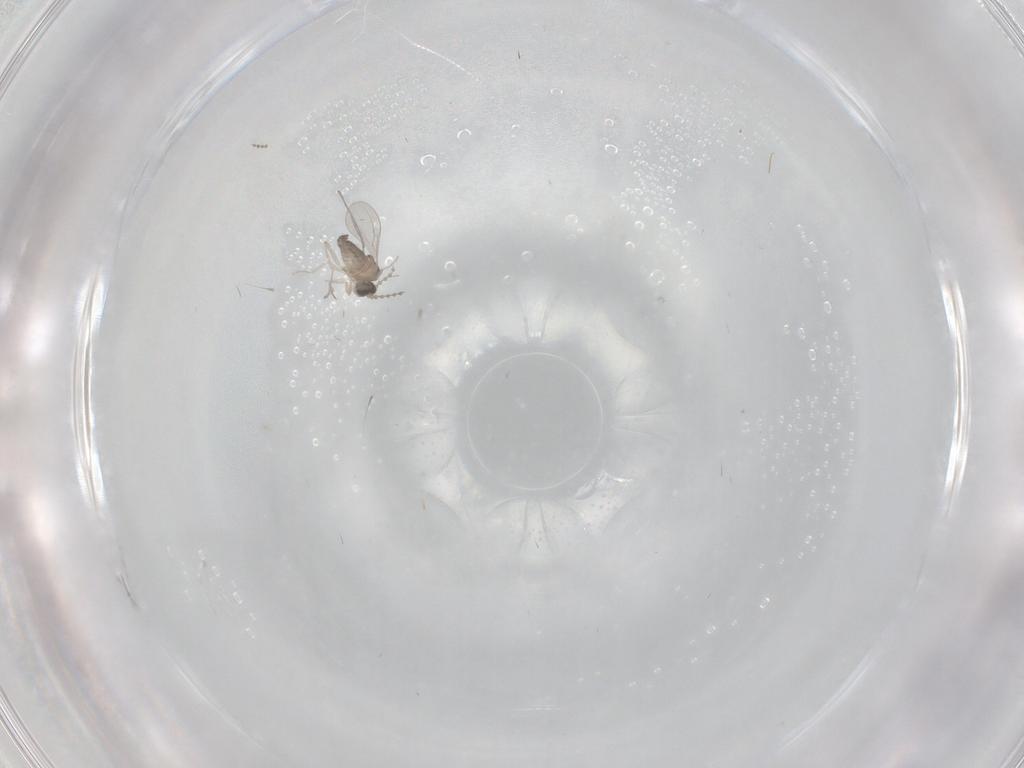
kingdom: Animalia
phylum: Arthropoda
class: Insecta
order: Diptera
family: Cecidomyiidae
